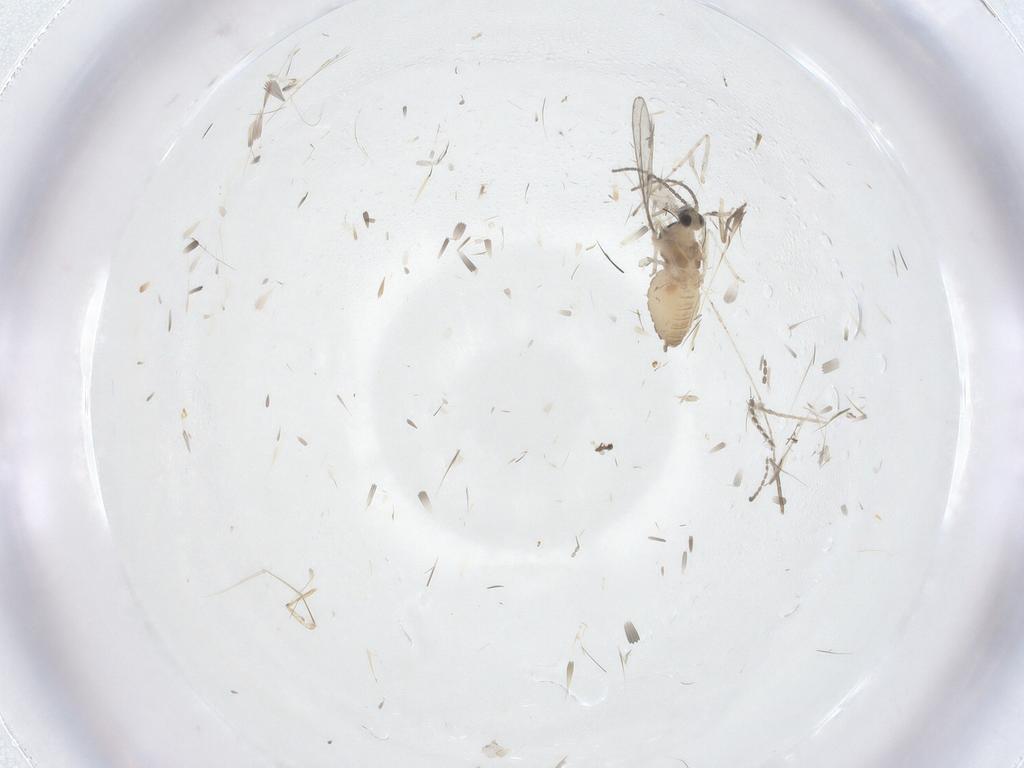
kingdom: Animalia
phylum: Arthropoda
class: Insecta
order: Diptera
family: Cecidomyiidae
